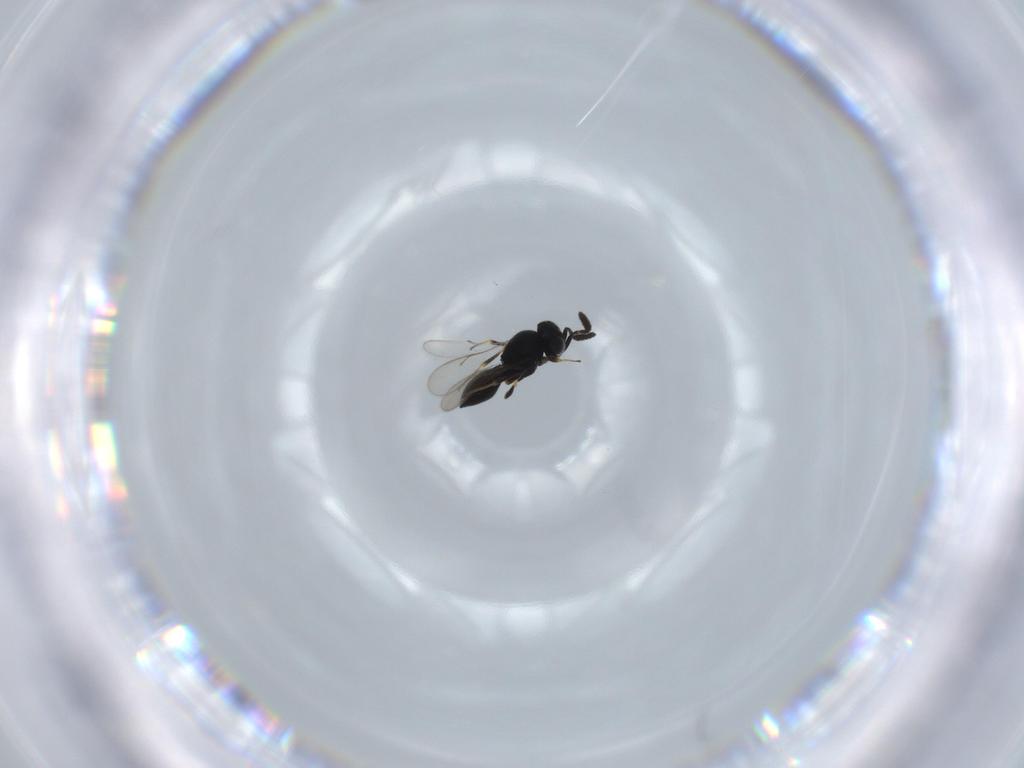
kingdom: Animalia
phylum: Arthropoda
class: Insecta
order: Hymenoptera
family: Scelionidae
